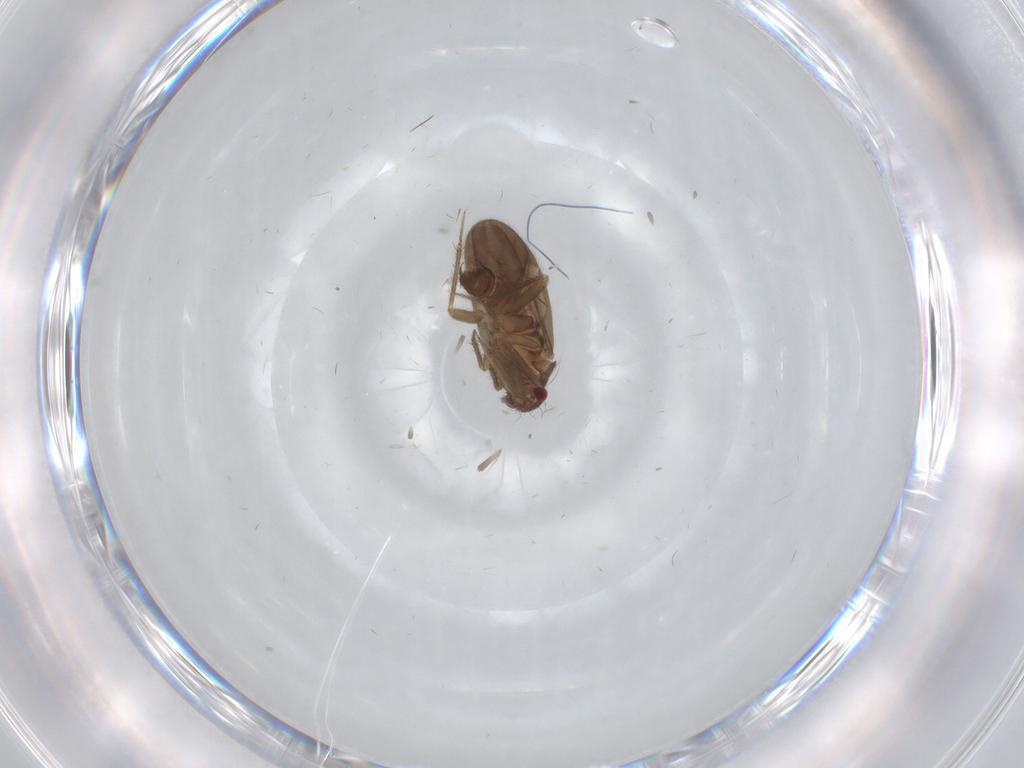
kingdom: Animalia
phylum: Arthropoda
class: Insecta
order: Hemiptera
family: Ceratocombidae
